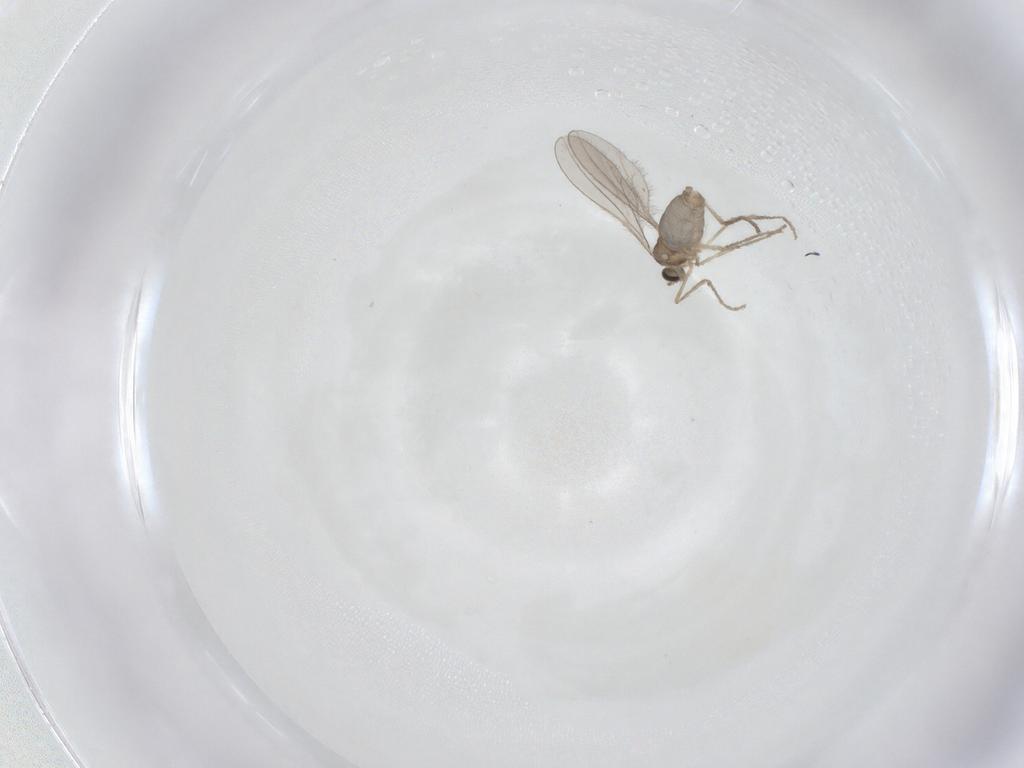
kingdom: Animalia
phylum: Arthropoda
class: Insecta
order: Diptera
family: Cecidomyiidae
